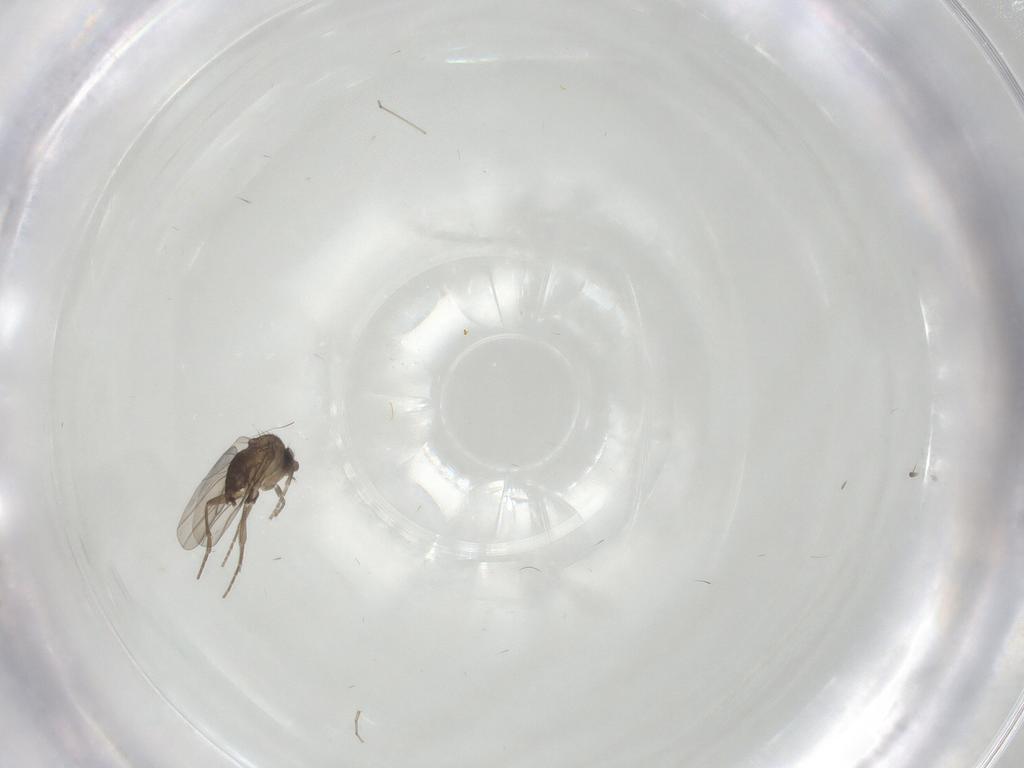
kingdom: Animalia
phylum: Arthropoda
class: Insecta
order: Diptera
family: Phoridae
